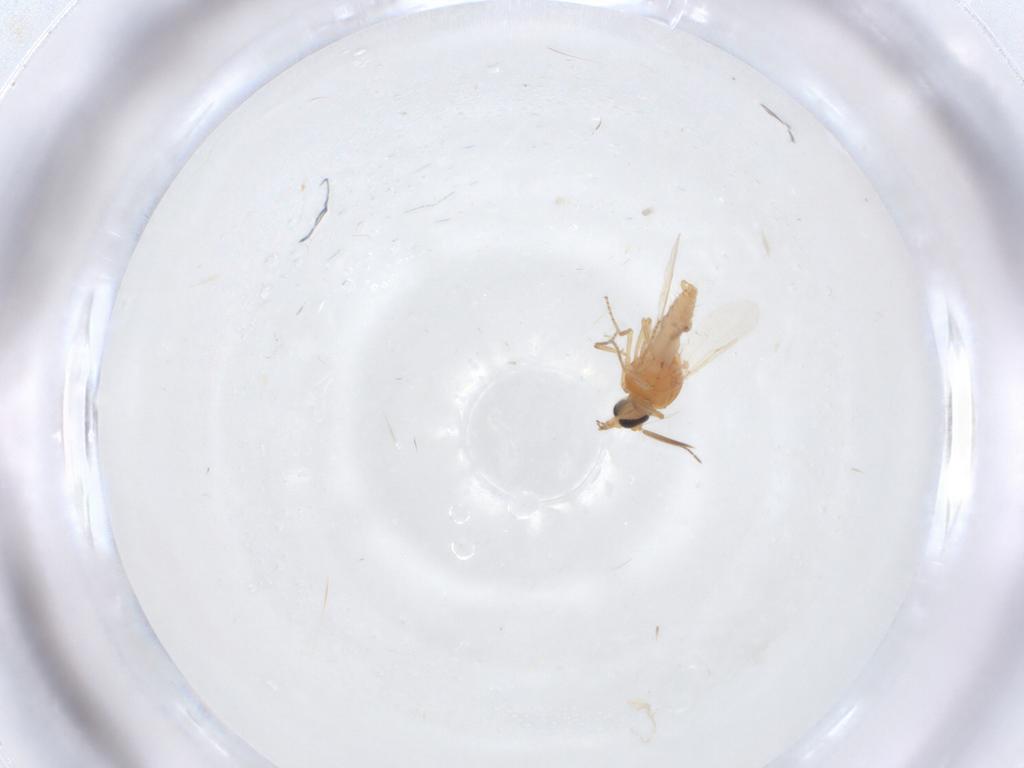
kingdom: Animalia
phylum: Arthropoda
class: Insecta
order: Diptera
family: Ceratopogonidae
